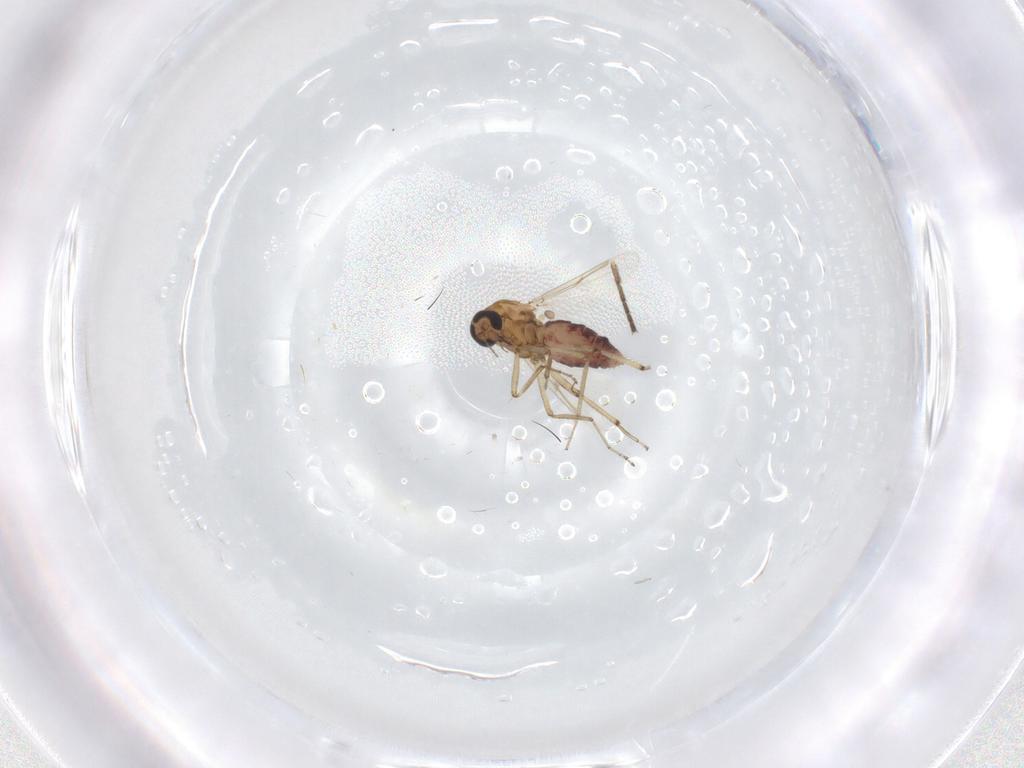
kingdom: Animalia
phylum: Arthropoda
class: Insecta
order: Diptera
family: Ceratopogonidae
